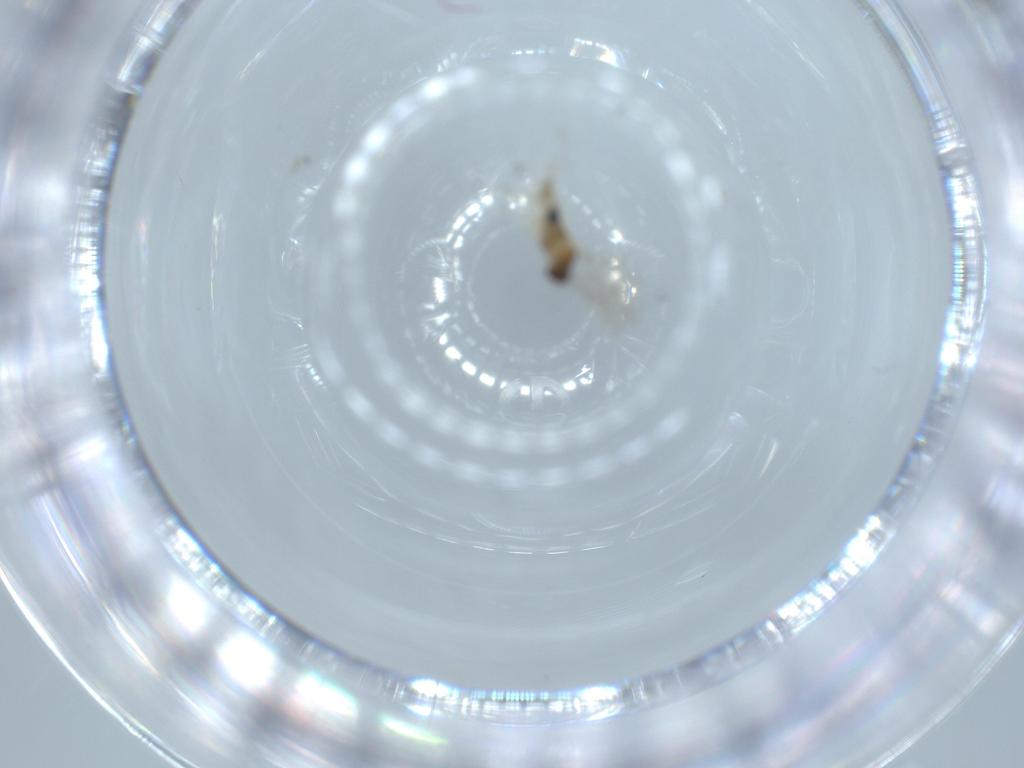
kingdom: Animalia
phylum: Arthropoda
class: Insecta
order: Diptera
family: Cecidomyiidae
